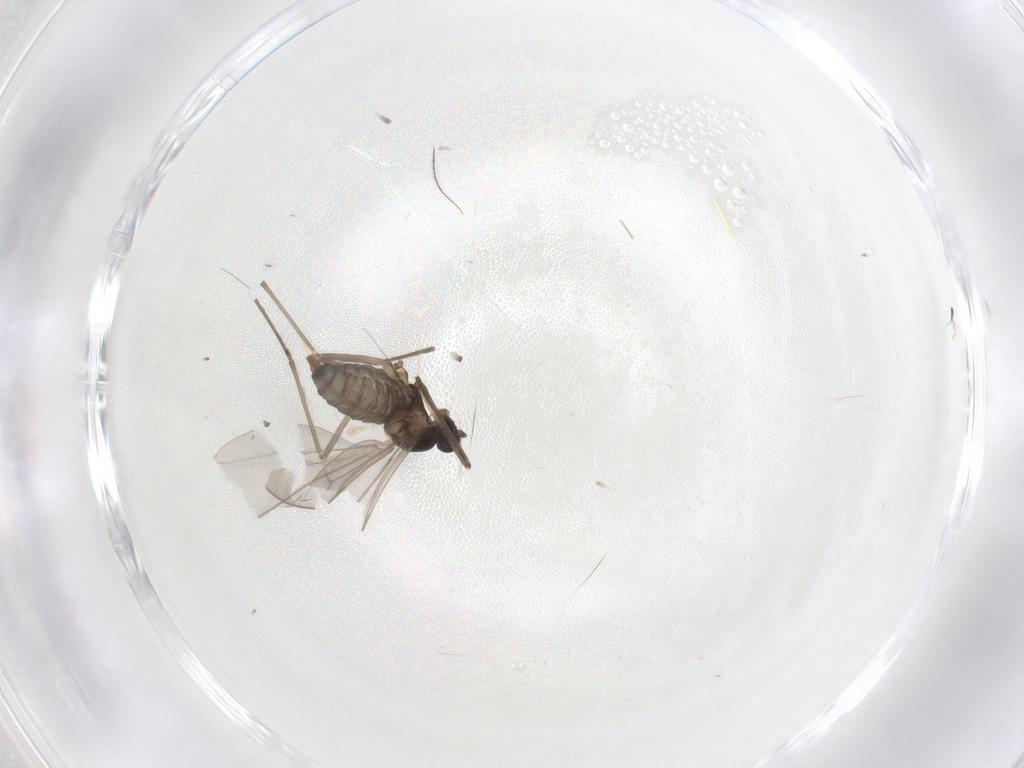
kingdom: Animalia
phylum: Arthropoda
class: Insecta
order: Diptera
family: Cecidomyiidae
